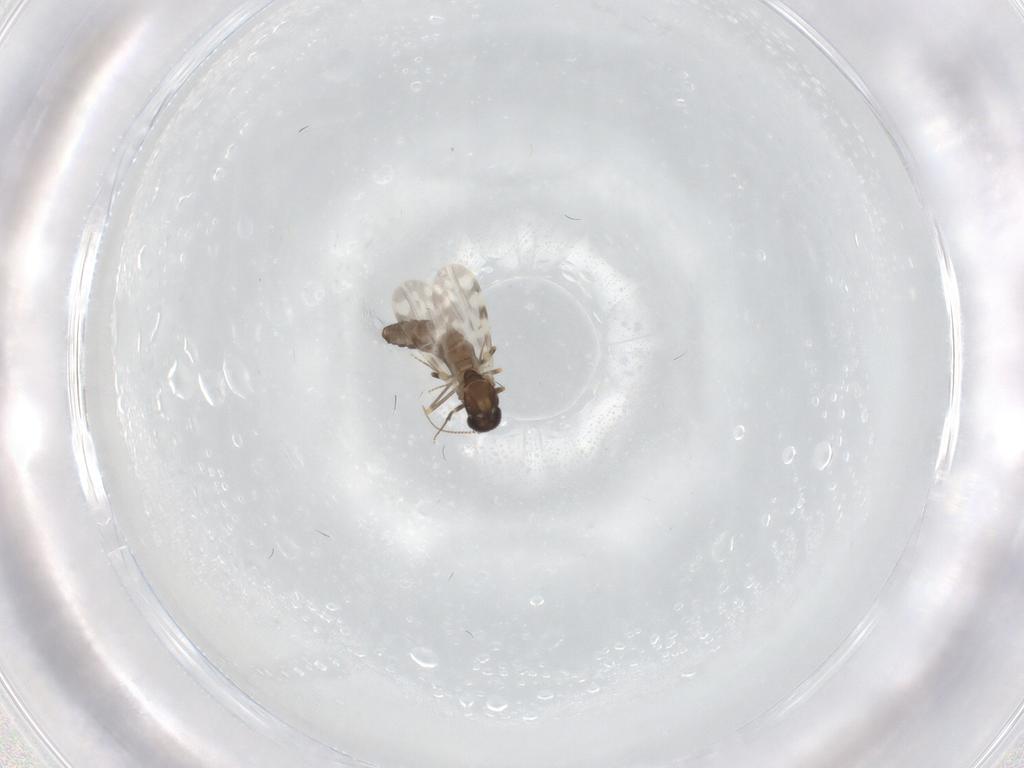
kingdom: Animalia
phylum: Arthropoda
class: Insecta
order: Diptera
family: Ceratopogonidae
